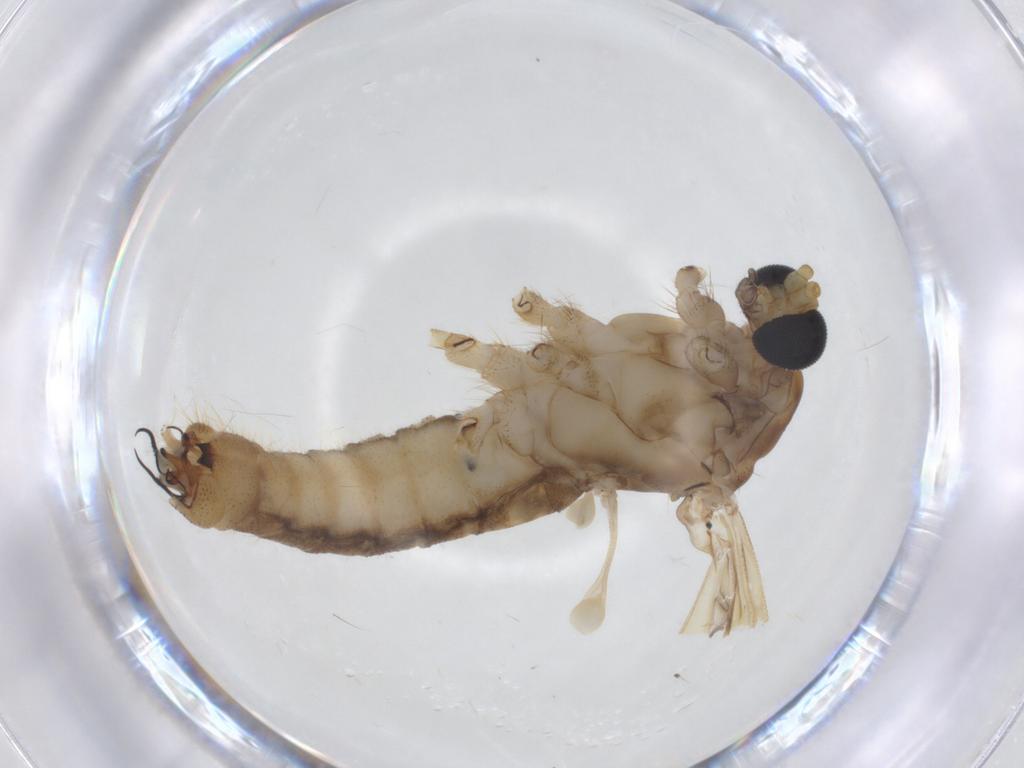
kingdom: Animalia
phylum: Arthropoda
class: Insecta
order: Diptera
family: Limoniidae
